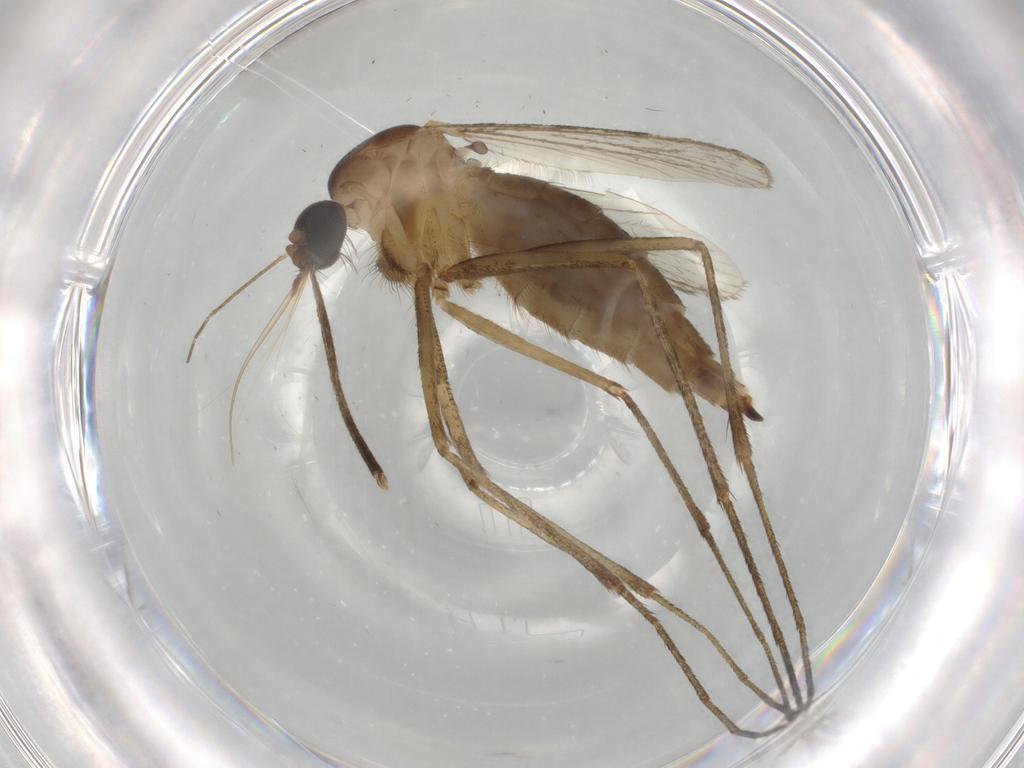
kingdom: Animalia
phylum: Arthropoda
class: Insecta
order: Diptera
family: Culicidae
